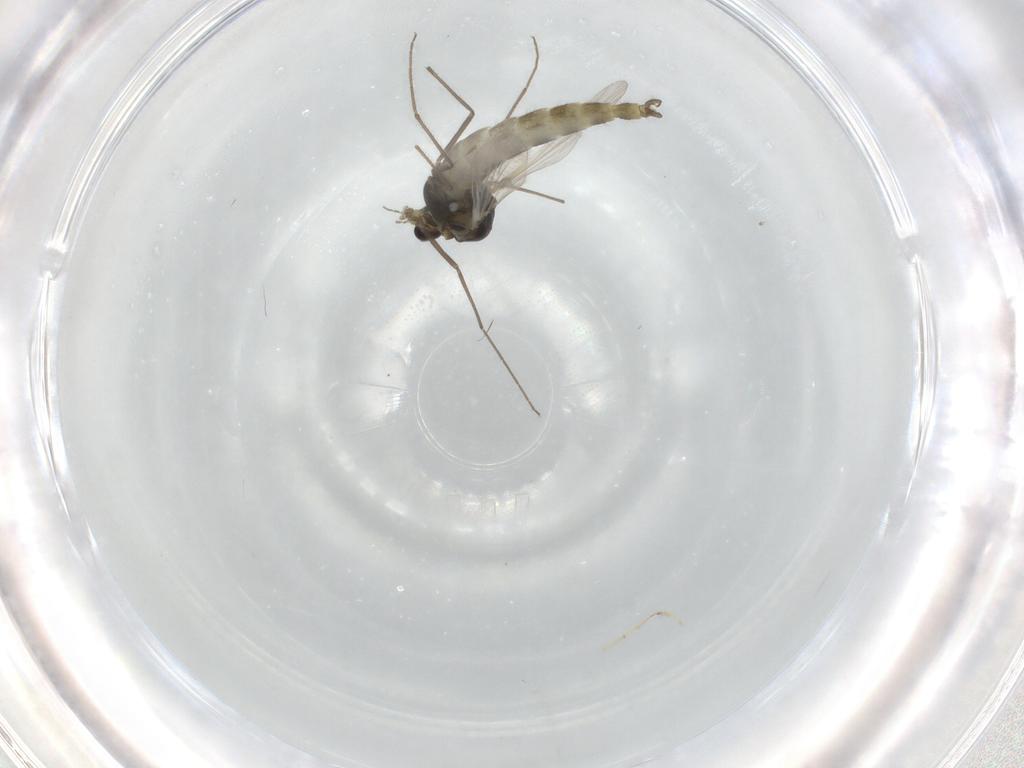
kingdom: Animalia
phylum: Arthropoda
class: Insecta
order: Diptera
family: Chironomidae
